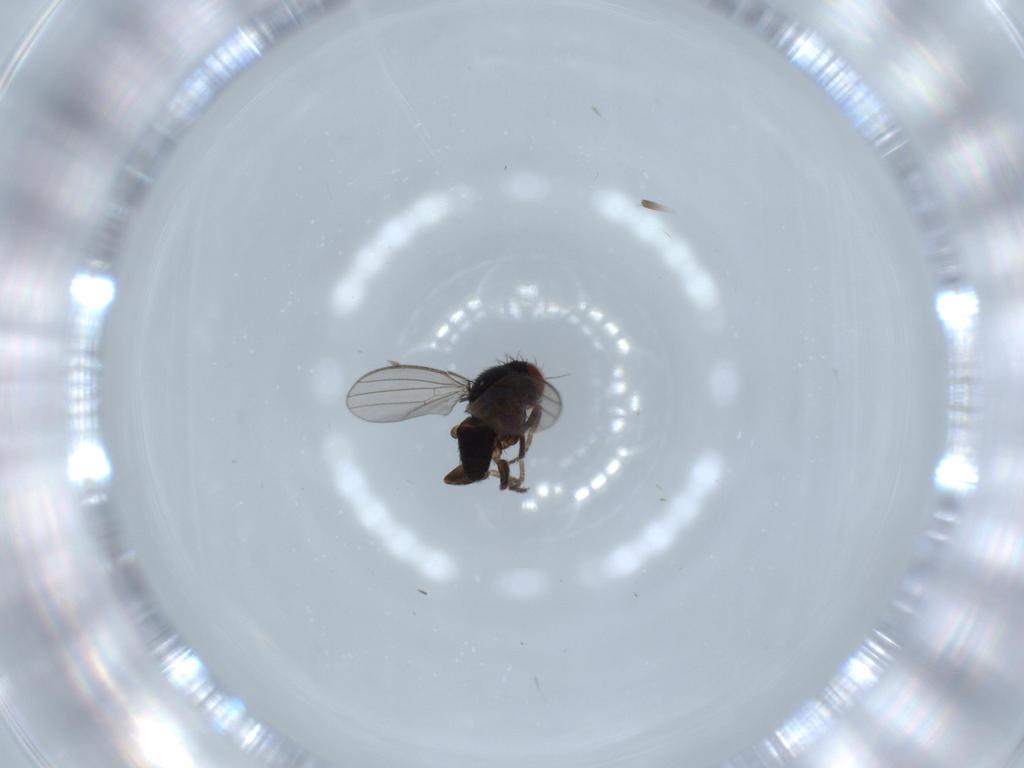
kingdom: Animalia
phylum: Arthropoda
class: Insecta
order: Diptera
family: Milichiidae
